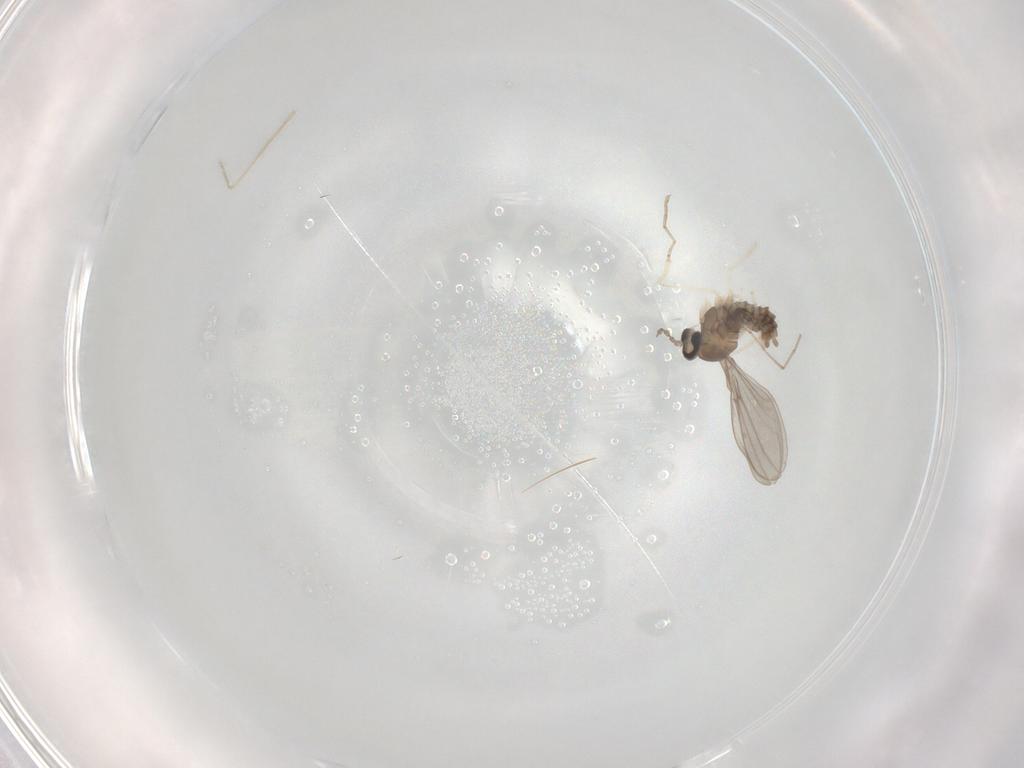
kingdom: Animalia
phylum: Arthropoda
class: Insecta
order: Diptera
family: Cecidomyiidae
